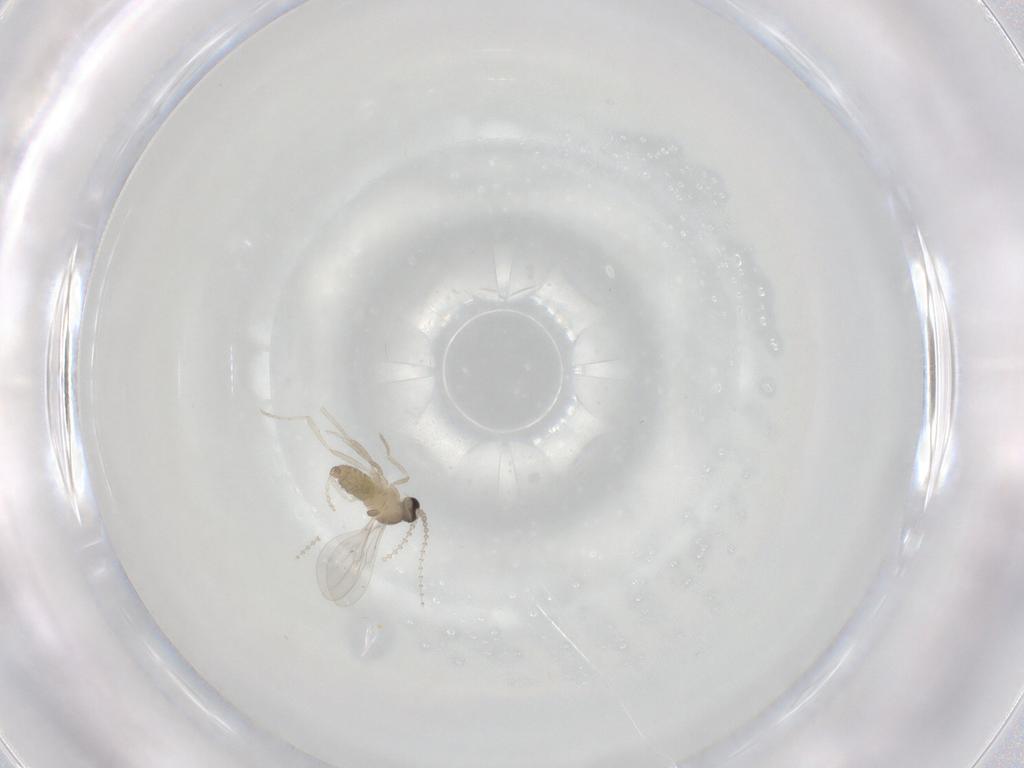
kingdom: Animalia
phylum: Arthropoda
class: Insecta
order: Diptera
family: Cecidomyiidae
